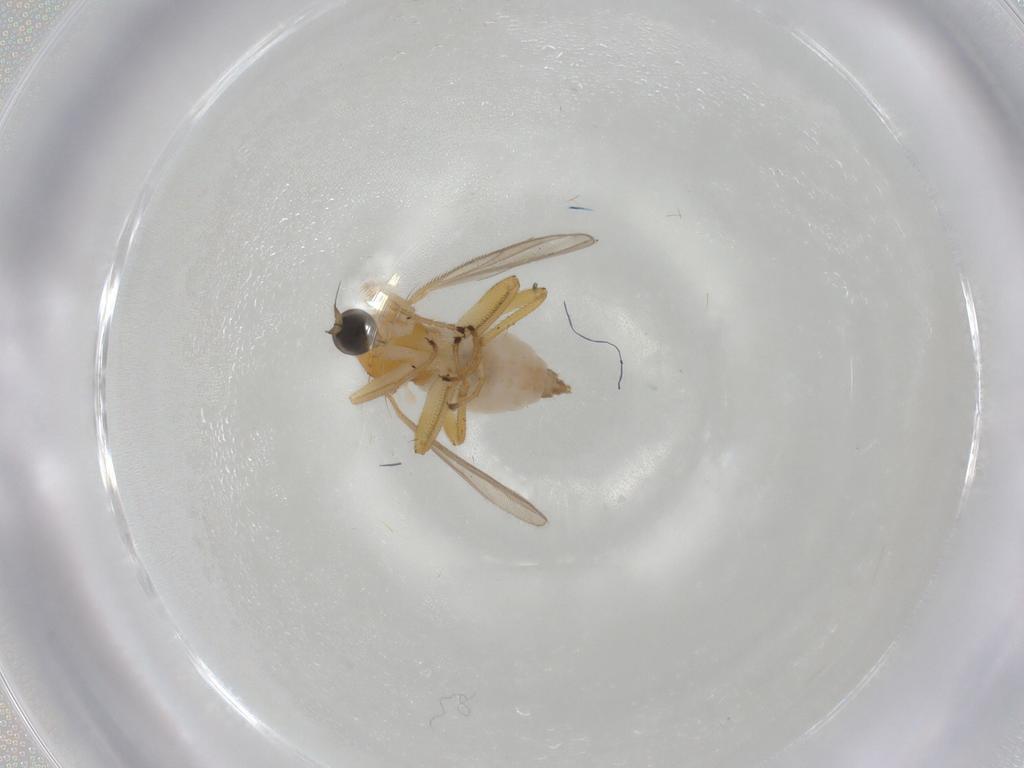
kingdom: Animalia
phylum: Arthropoda
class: Insecta
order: Diptera
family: Hybotidae
